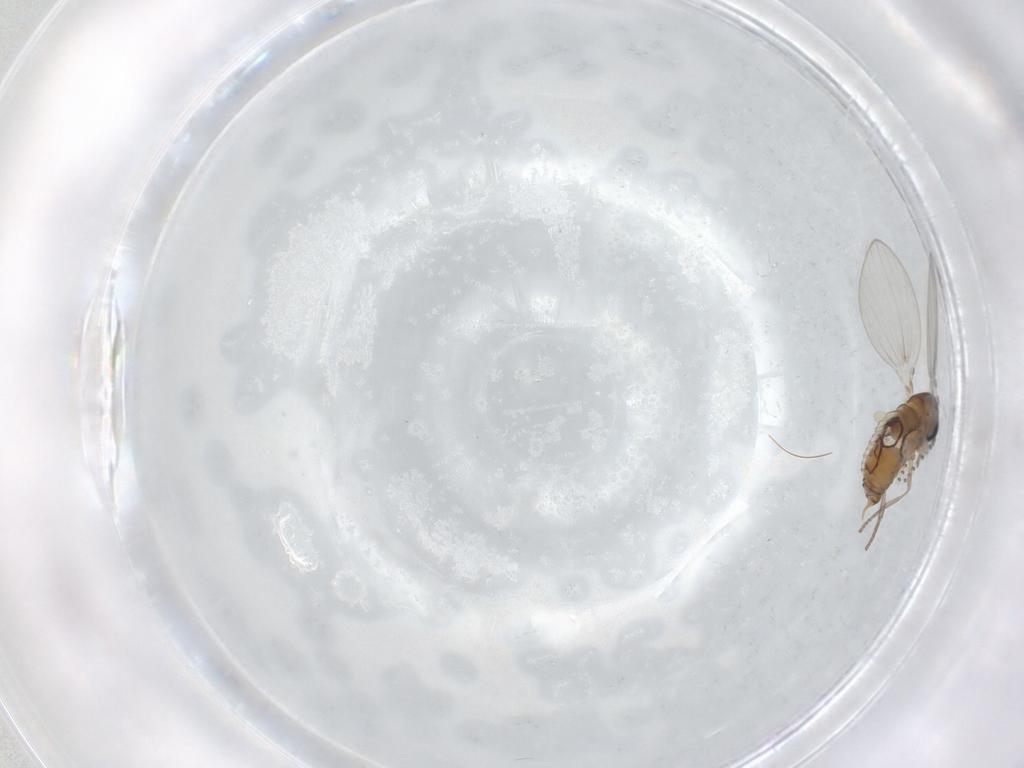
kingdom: Animalia
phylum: Arthropoda
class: Insecta
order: Diptera
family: Psychodidae
